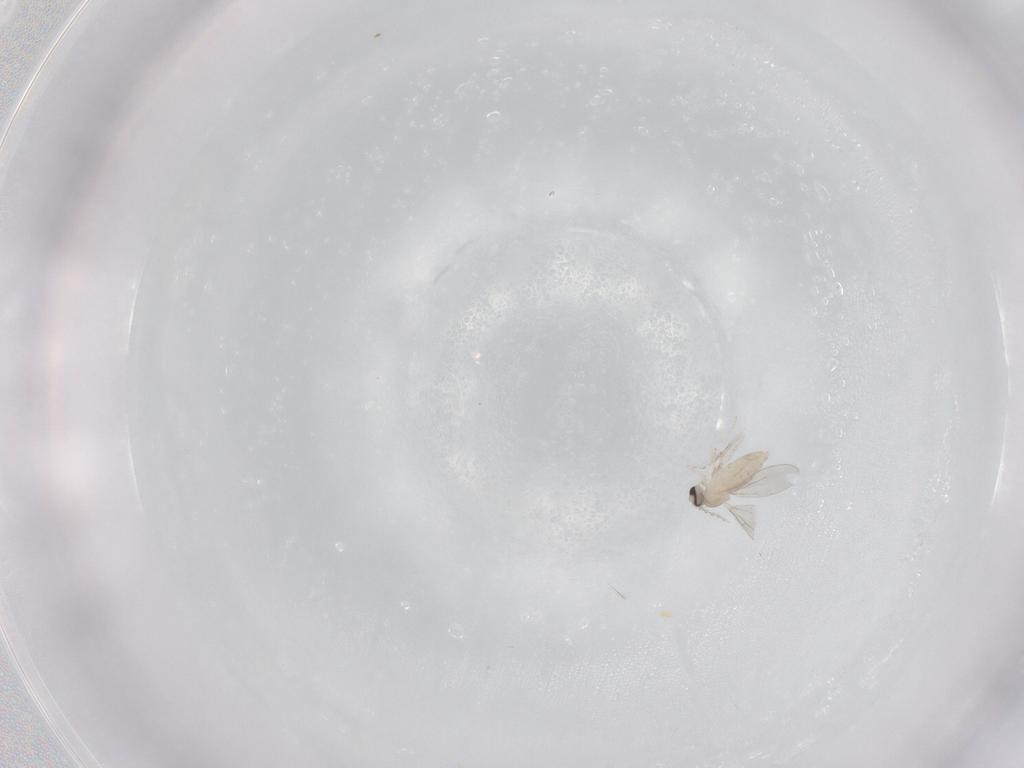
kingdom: Animalia
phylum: Arthropoda
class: Insecta
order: Diptera
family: Cecidomyiidae
